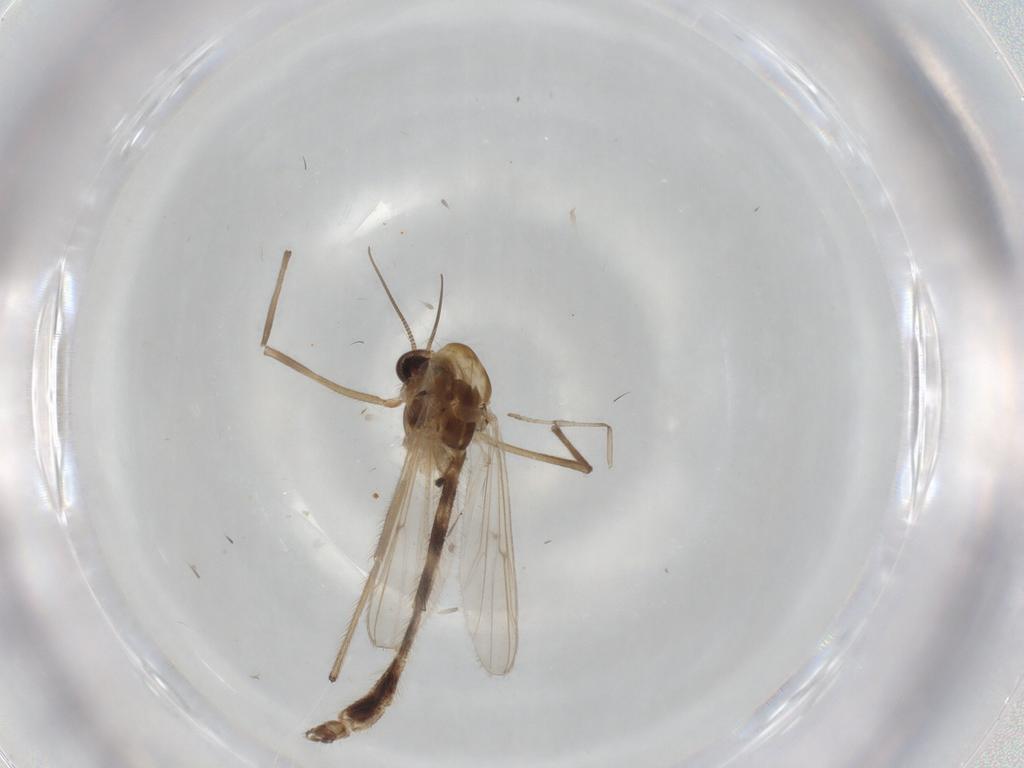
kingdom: Animalia
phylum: Arthropoda
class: Insecta
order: Diptera
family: Chironomidae
